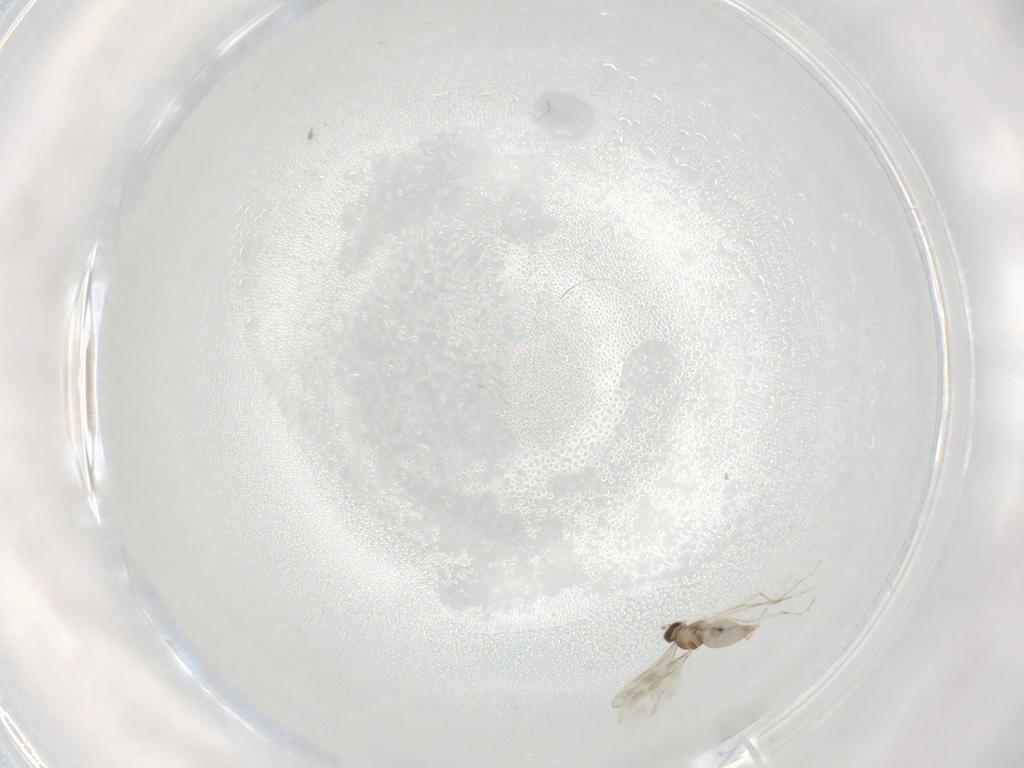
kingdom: Animalia
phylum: Arthropoda
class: Insecta
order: Diptera
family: Cecidomyiidae
